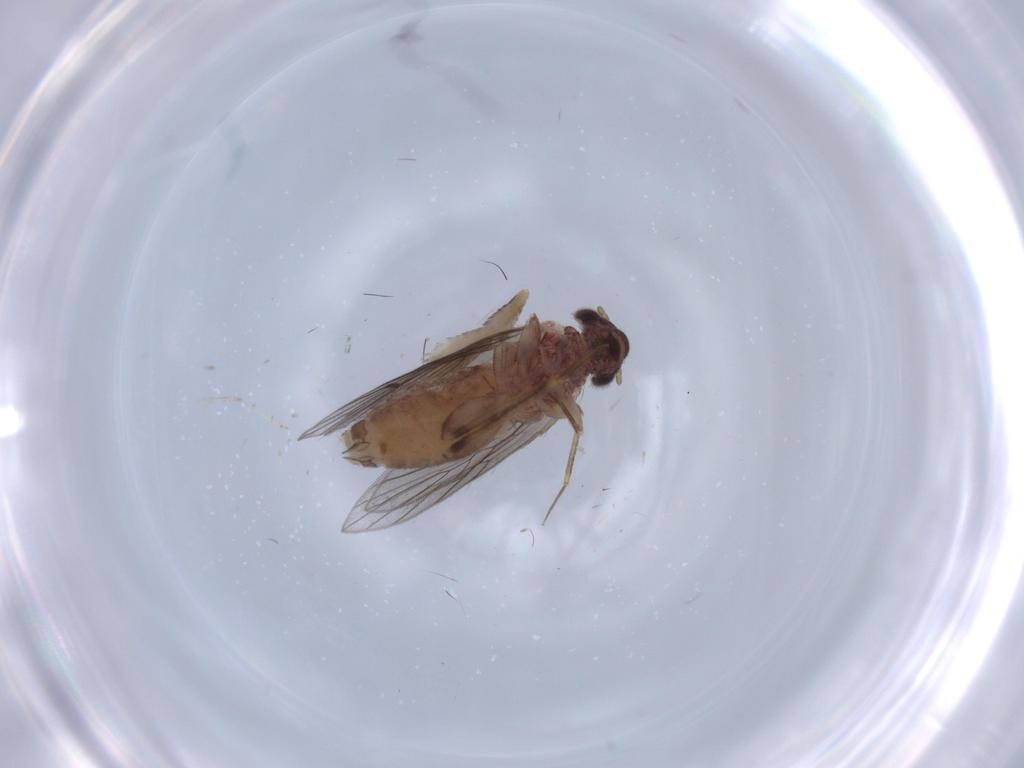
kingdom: Animalia
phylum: Arthropoda
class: Insecta
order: Psocodea
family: Lepidopsocidae
